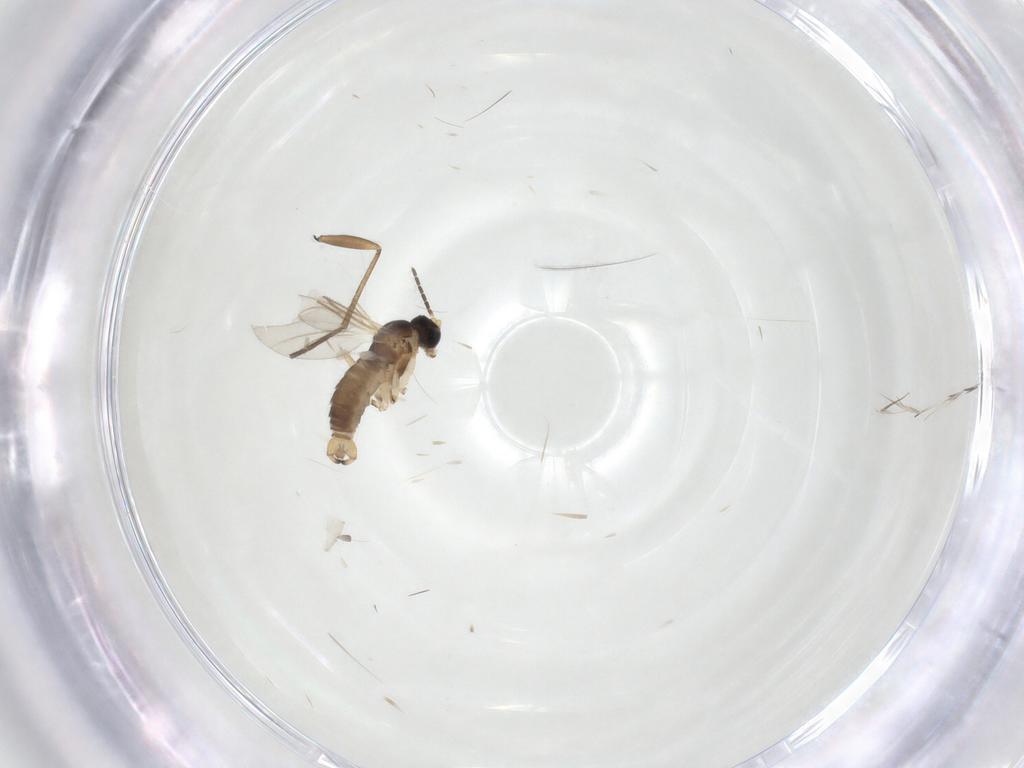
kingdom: Animalia
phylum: Arthropoda
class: Insecta
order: Diptera
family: Sciaridae
